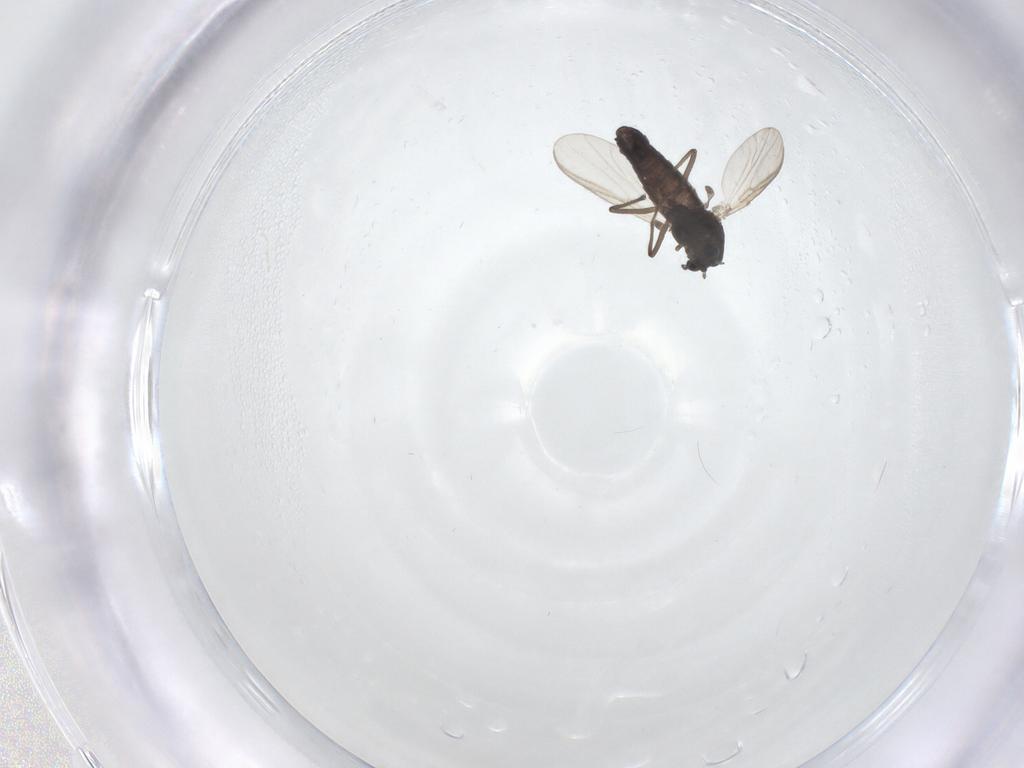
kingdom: Animalia
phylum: Arthropoda
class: Insecta
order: Diptera
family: Chironomidae
